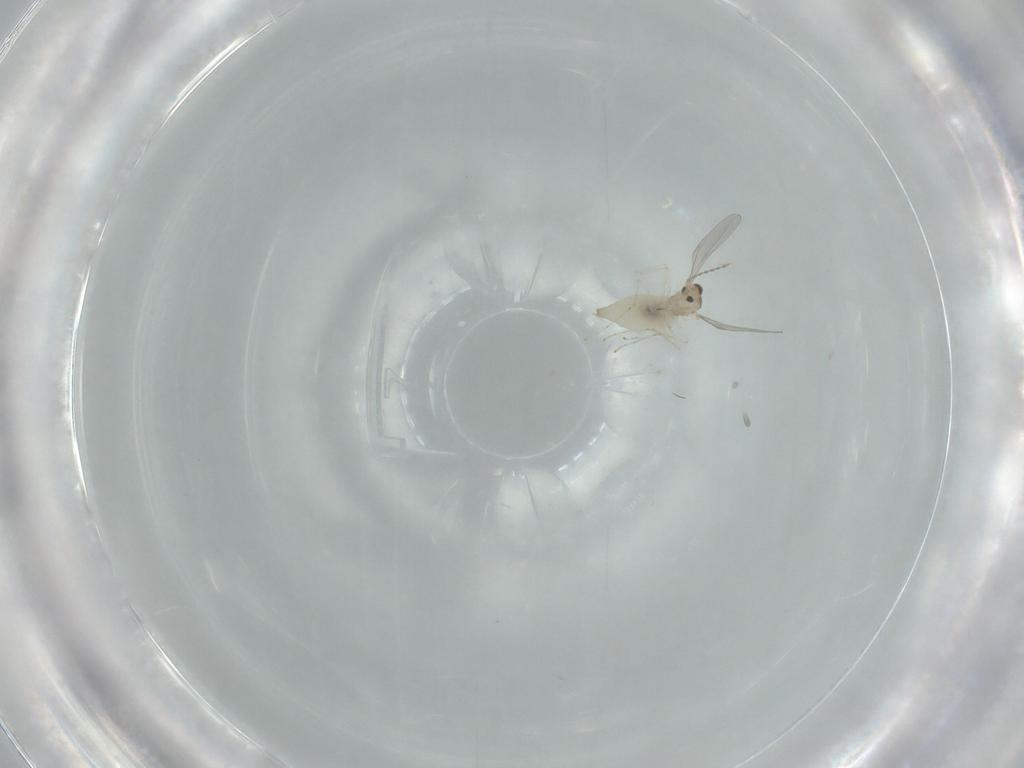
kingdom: Animalia
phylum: Arthropoda
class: Insecta
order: Diptera
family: Cecidomyiidae
